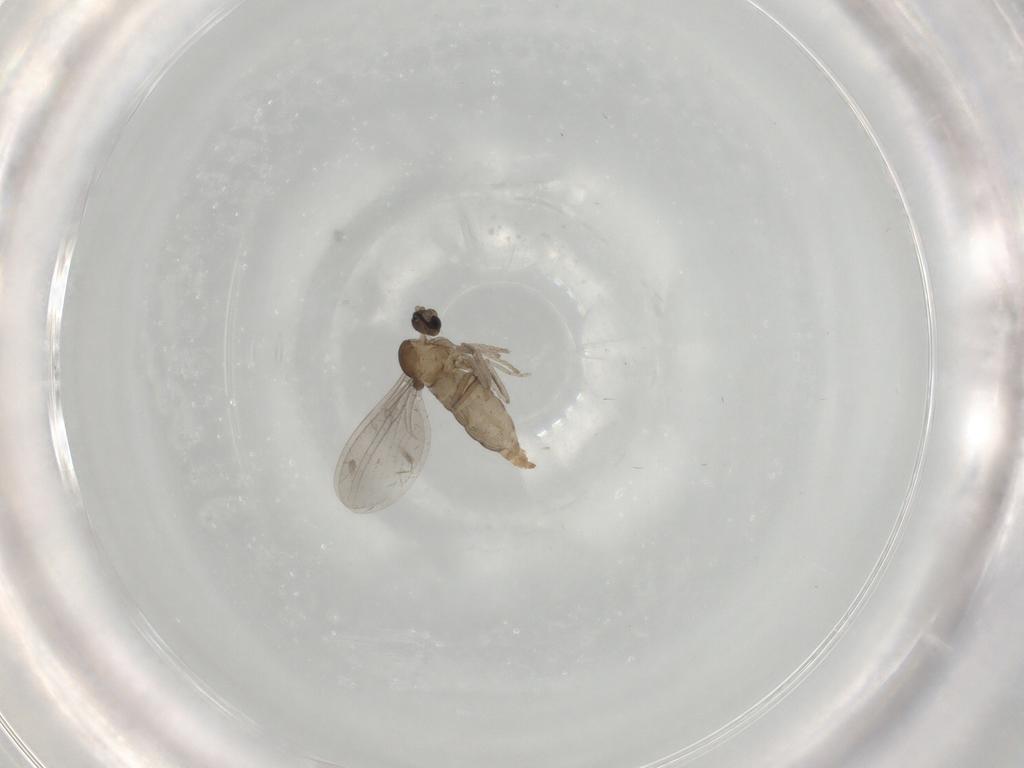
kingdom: Animalia
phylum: Arthropoda
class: Insecta
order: Diptera
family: Cecidomyiidae
